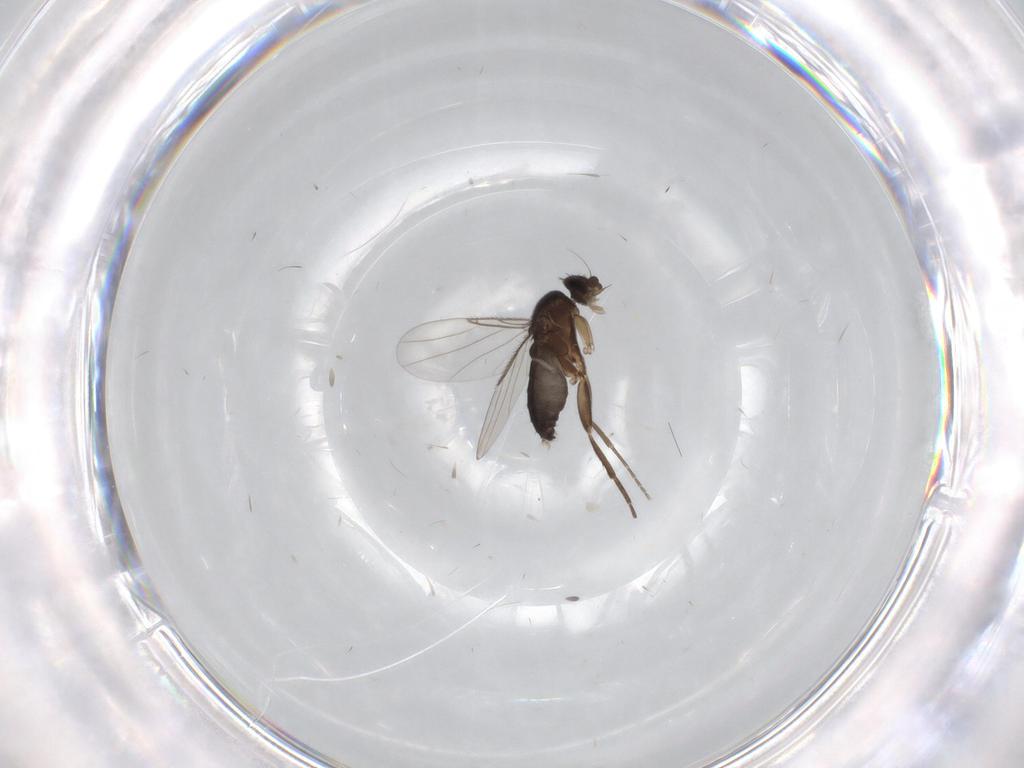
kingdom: Animalia
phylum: Arthropoda
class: Insecta
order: Diptera
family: Phoridae
